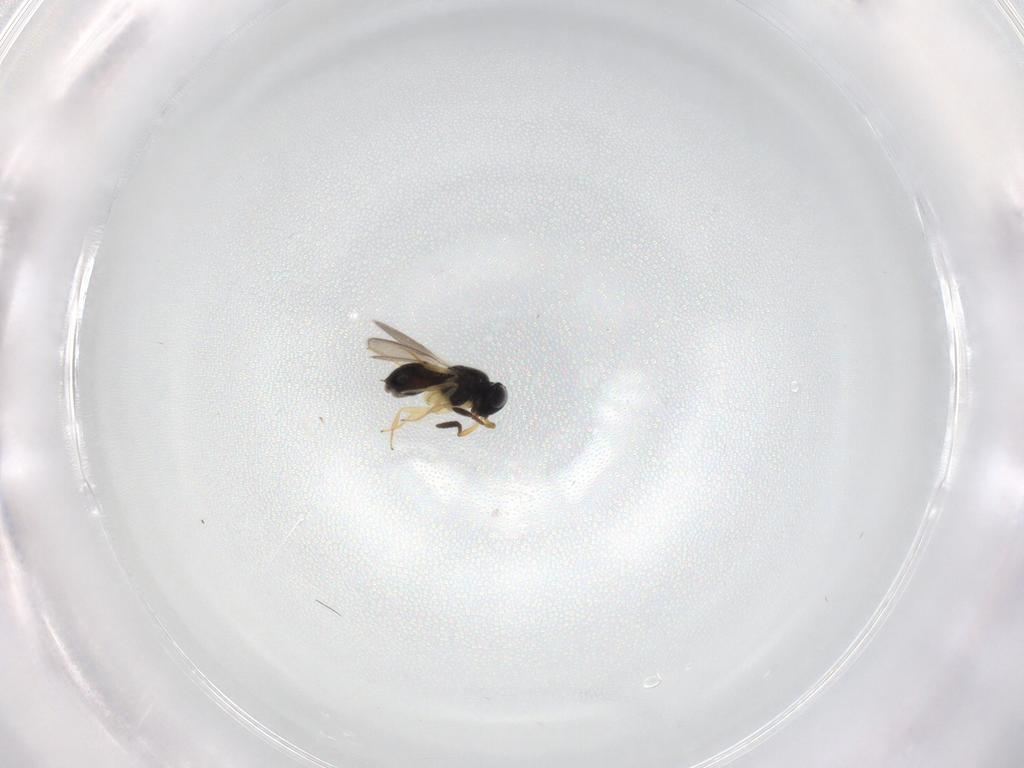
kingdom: Animalia
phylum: Arthropoda
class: Insecta
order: Hymenoptera
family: Scelionidae
